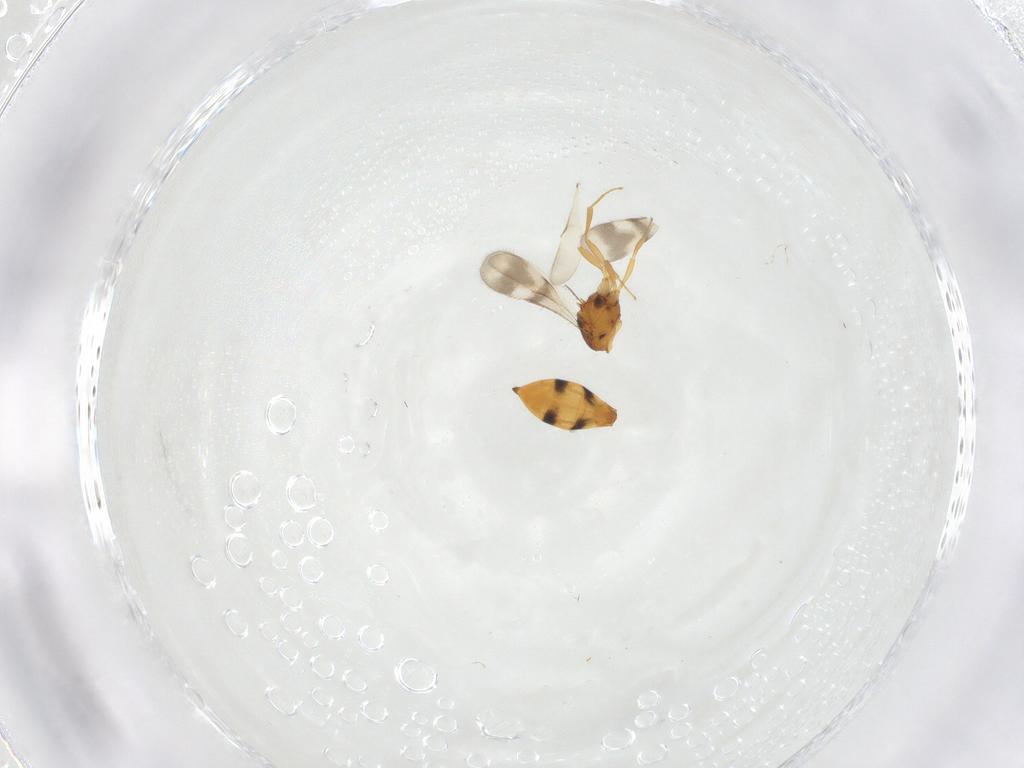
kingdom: Animalia
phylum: Arthropoda
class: Insecta
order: Hymenoptera
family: Scelionidae
